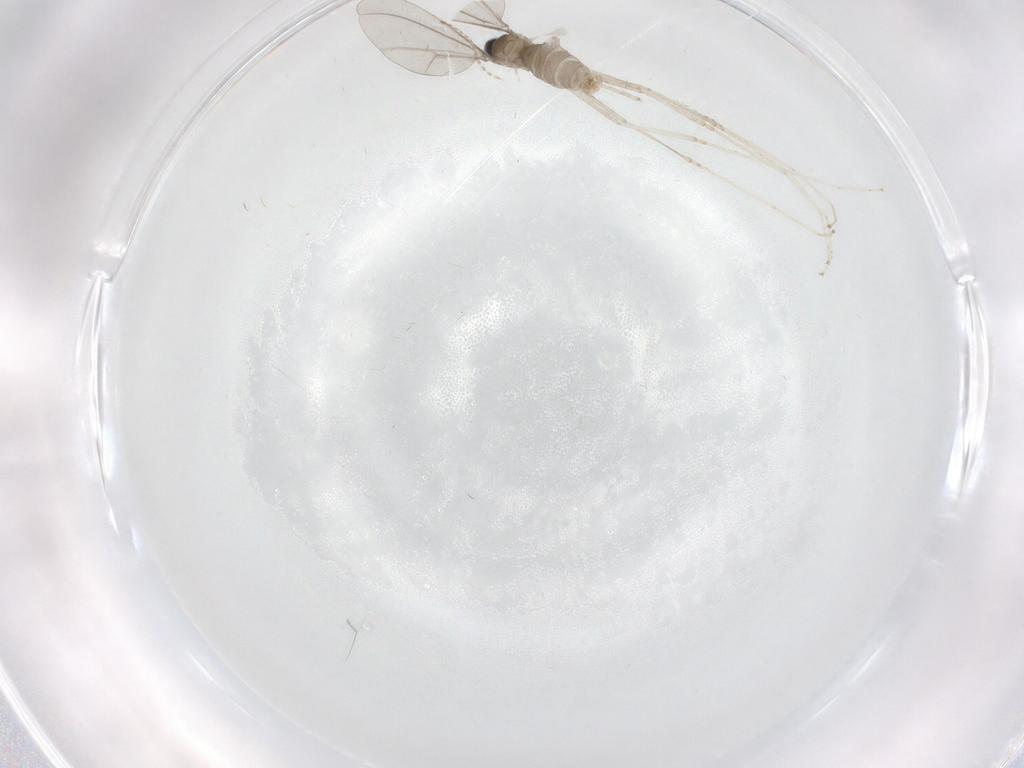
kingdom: Animalia
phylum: Arthropoda
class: Insecta
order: Diptera
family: Cecidomyiidae
